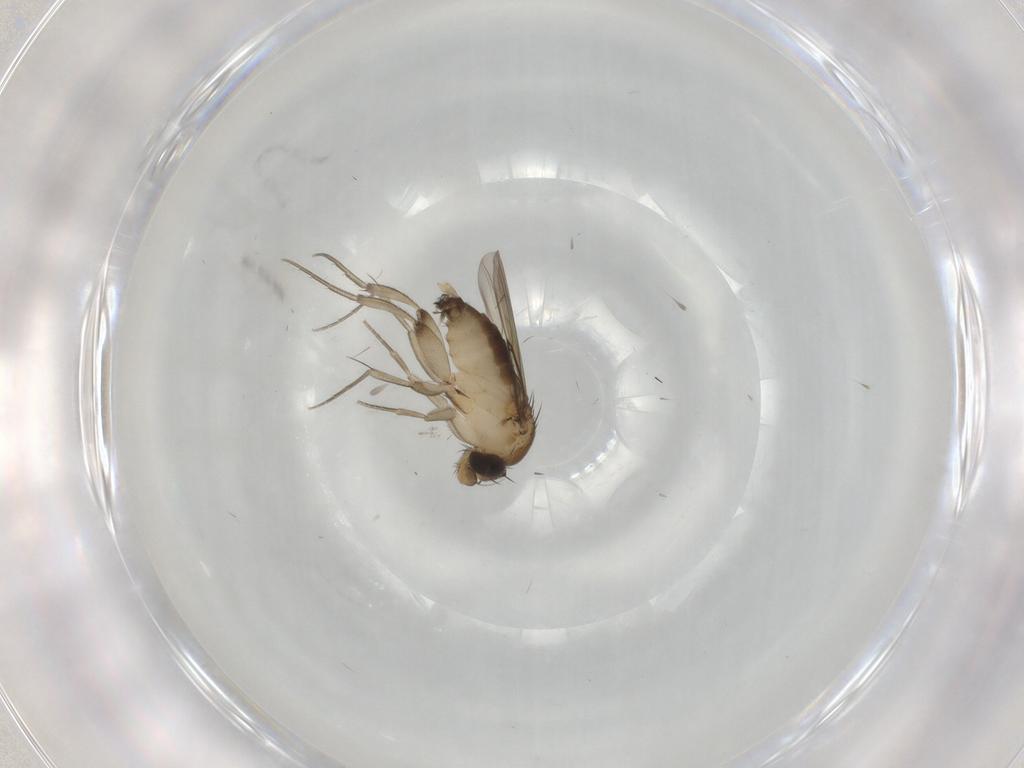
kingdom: Animalia
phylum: Arthropoda
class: Insecta
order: Diptera
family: Phoridae
